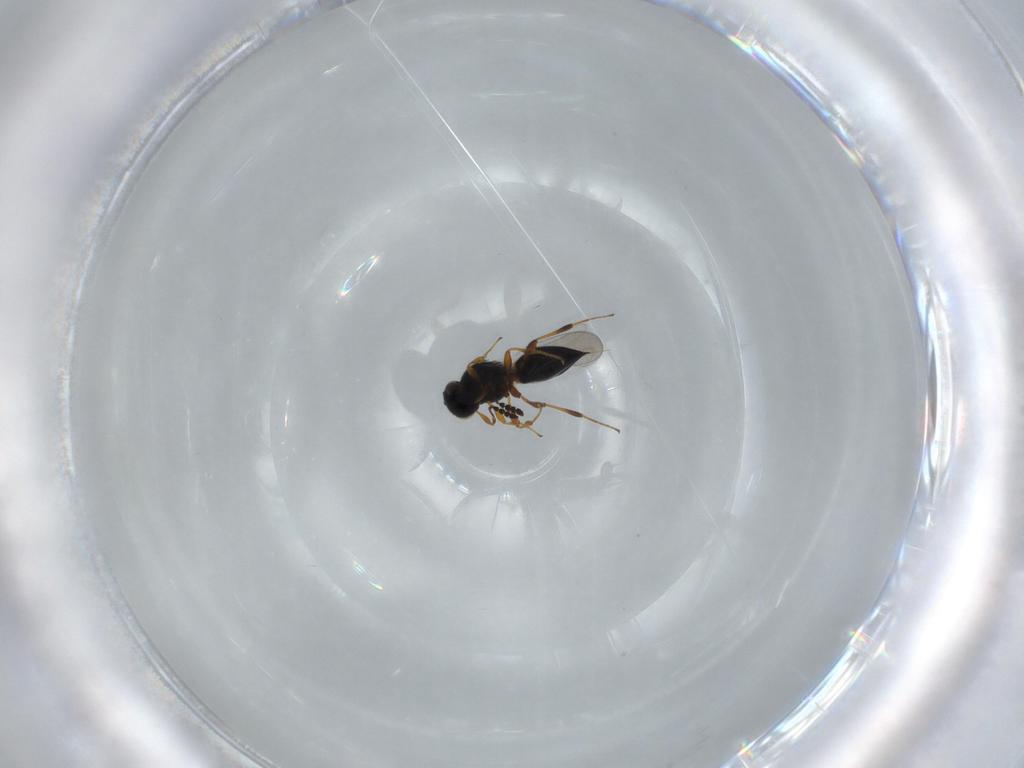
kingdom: Animalia
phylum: Arthropoda
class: Insecta
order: Hymenoptera
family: Platygastridae
